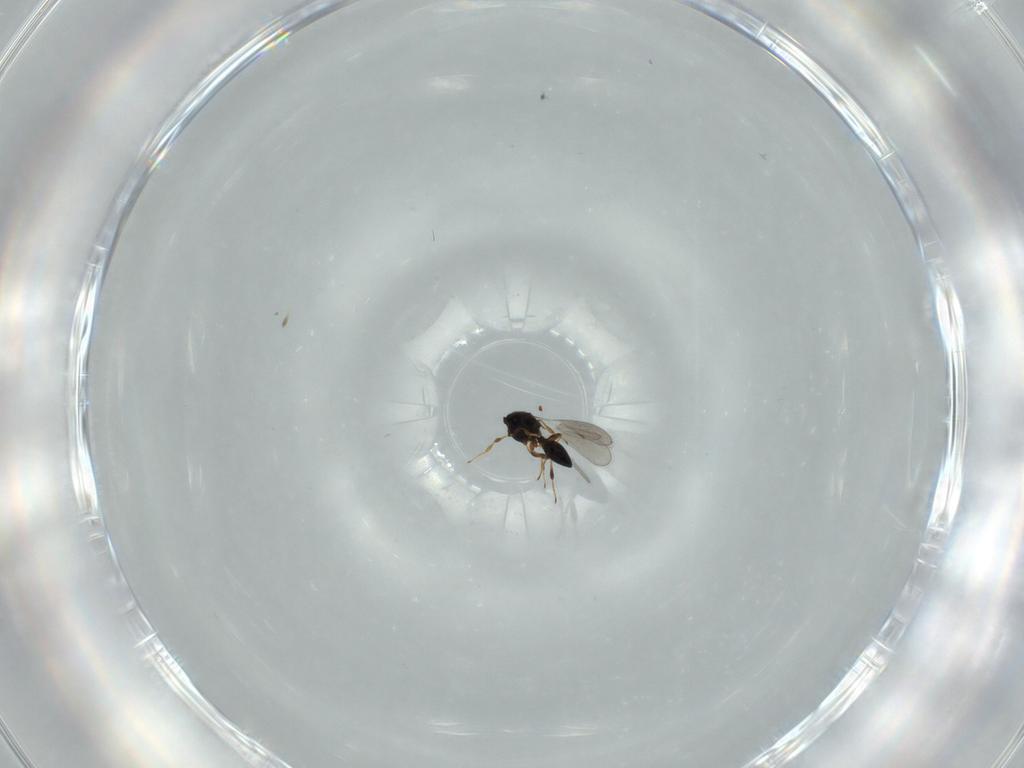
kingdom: Animalia
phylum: Arthropoda
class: Insecta
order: Hymenoptera
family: Platygastridae
